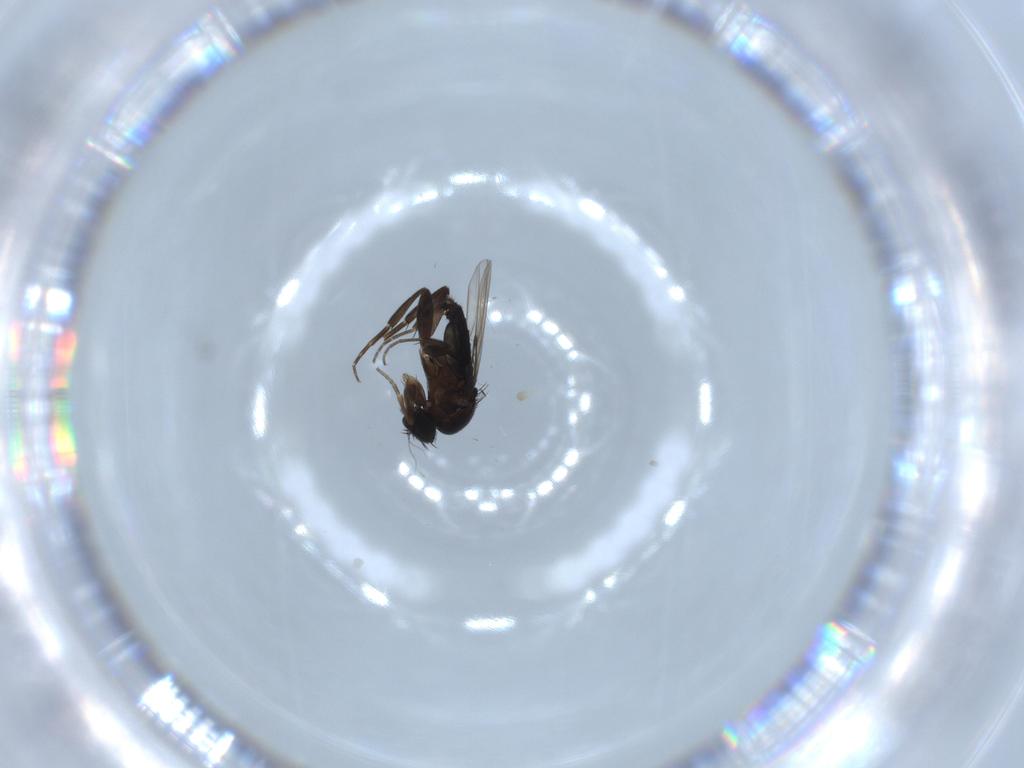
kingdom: Animalia
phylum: Arthropoda
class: Insecta
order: Diptera
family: Phoridae
